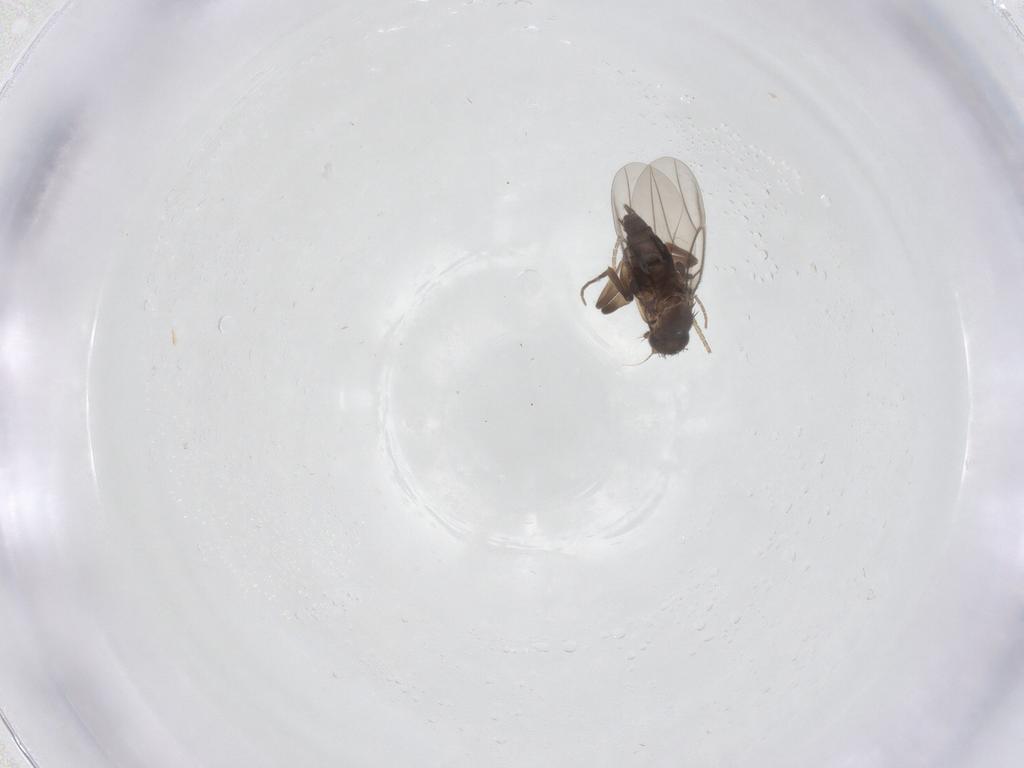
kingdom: Animalia
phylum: Arthropoda
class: Insecta
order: Diptera
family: Phoridae
